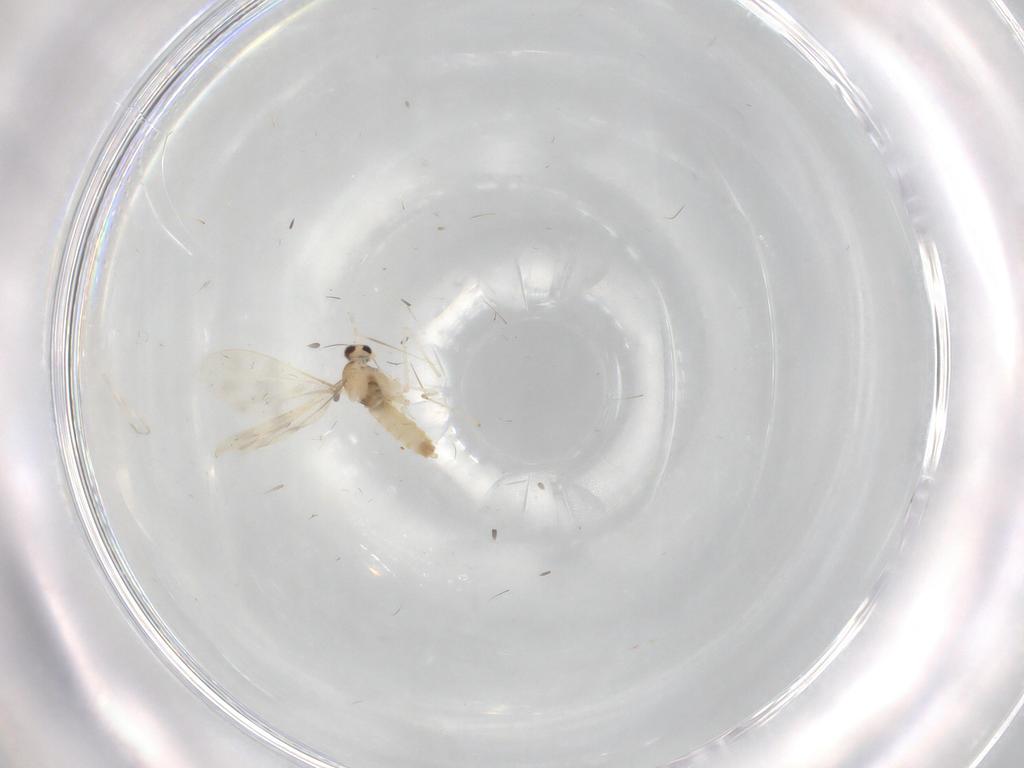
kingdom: Animalia
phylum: Arthropoda
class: Insecta
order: Diptera
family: Cecidomyiidae
